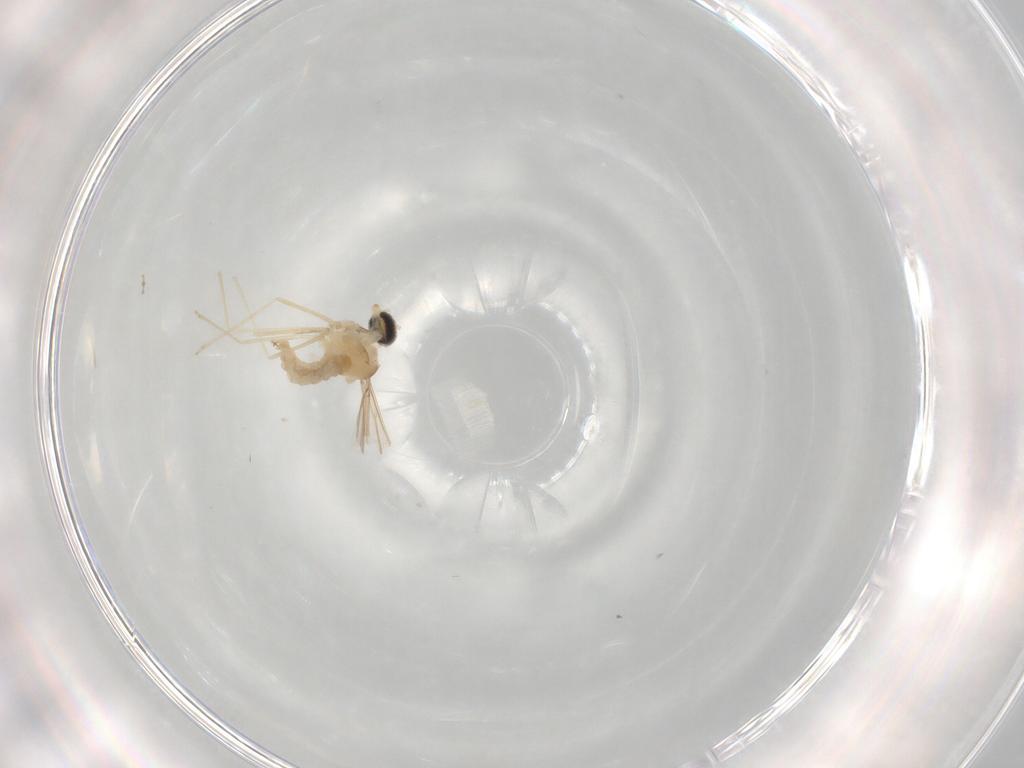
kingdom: Animalia
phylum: Arthropoda
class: Insecta
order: Diptera
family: Cecidomyiidae
